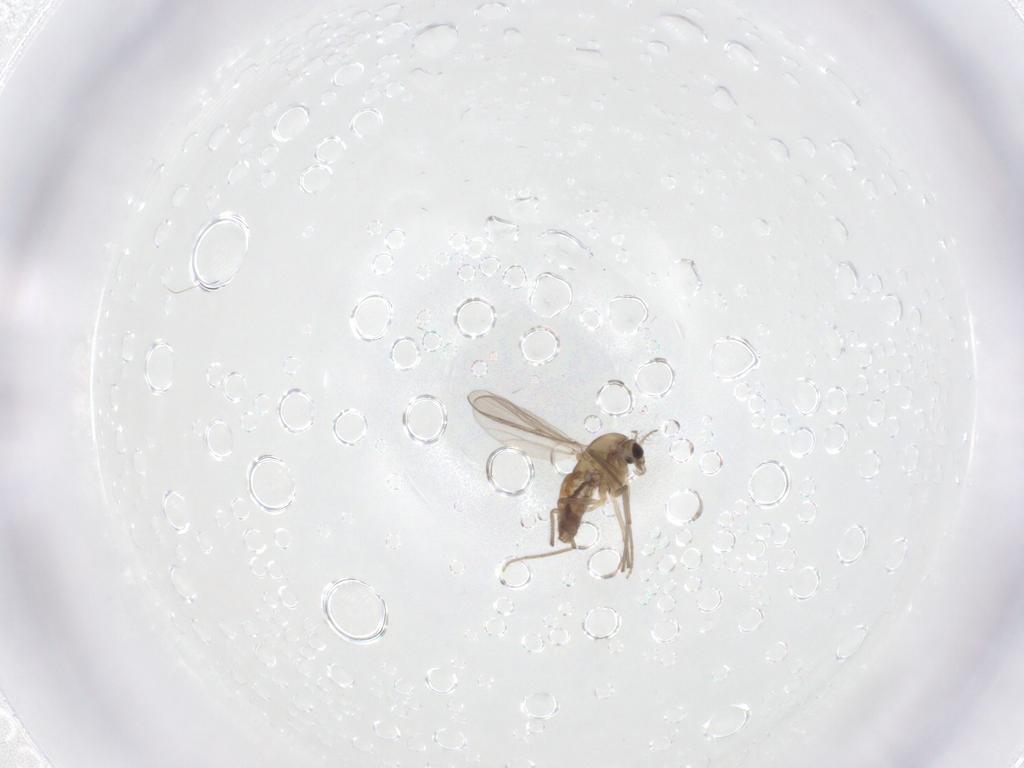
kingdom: Animalia
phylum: Arthropoda
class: Insecta
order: Diptera
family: Chironomidae
